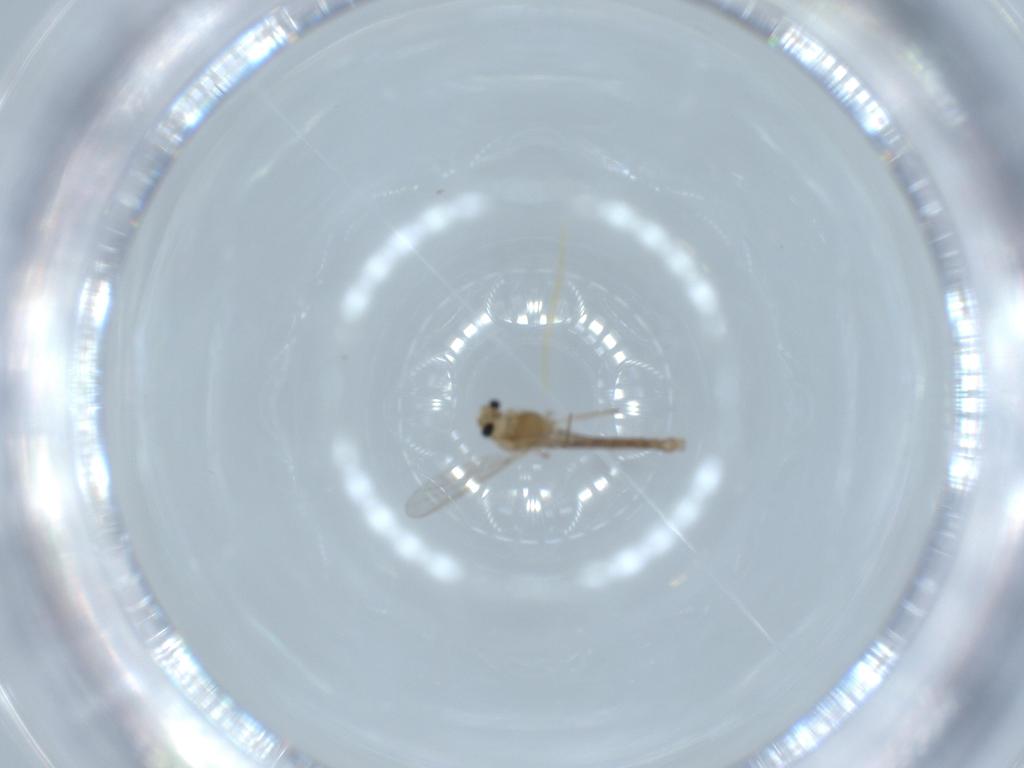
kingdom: Animalia
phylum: Arthropoda
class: Insecta
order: Diptera
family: Chironomidae
